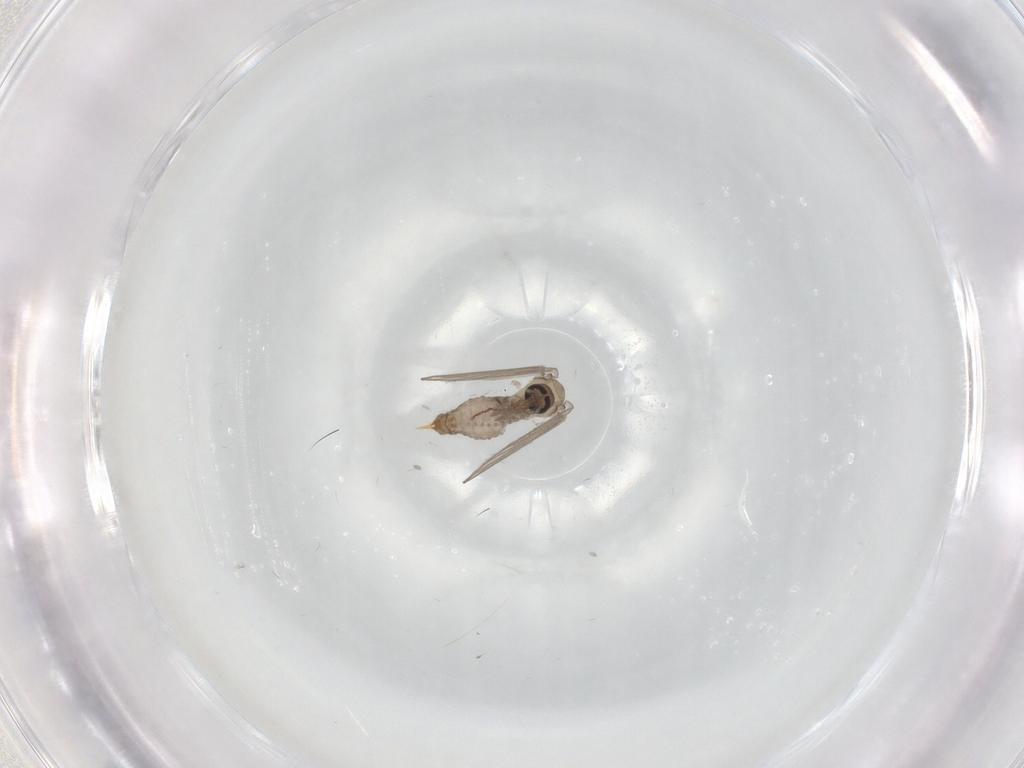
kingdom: Animalia
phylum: Arthropoda
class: Insecta
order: Diptera
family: Psychodidae
